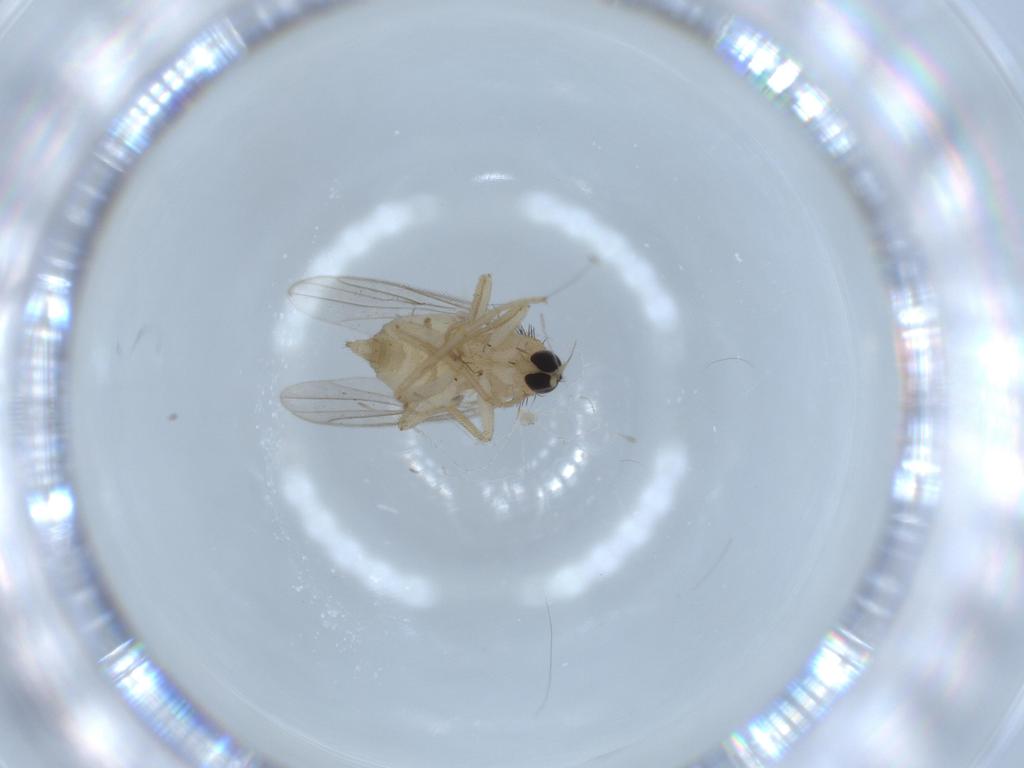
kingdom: Animalia
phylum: Arthropoda
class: Insecta
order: Diptera
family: Hybotidae
